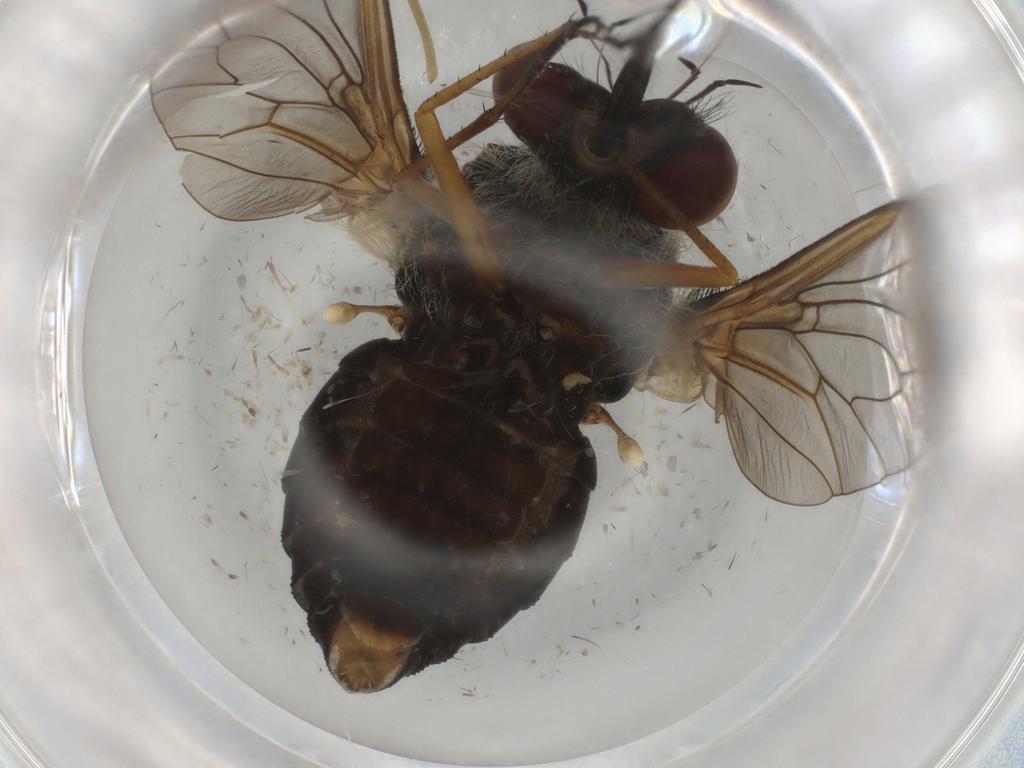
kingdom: Animalia
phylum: Arthropoda
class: Insecta
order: Diptera
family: Bombyliidae
